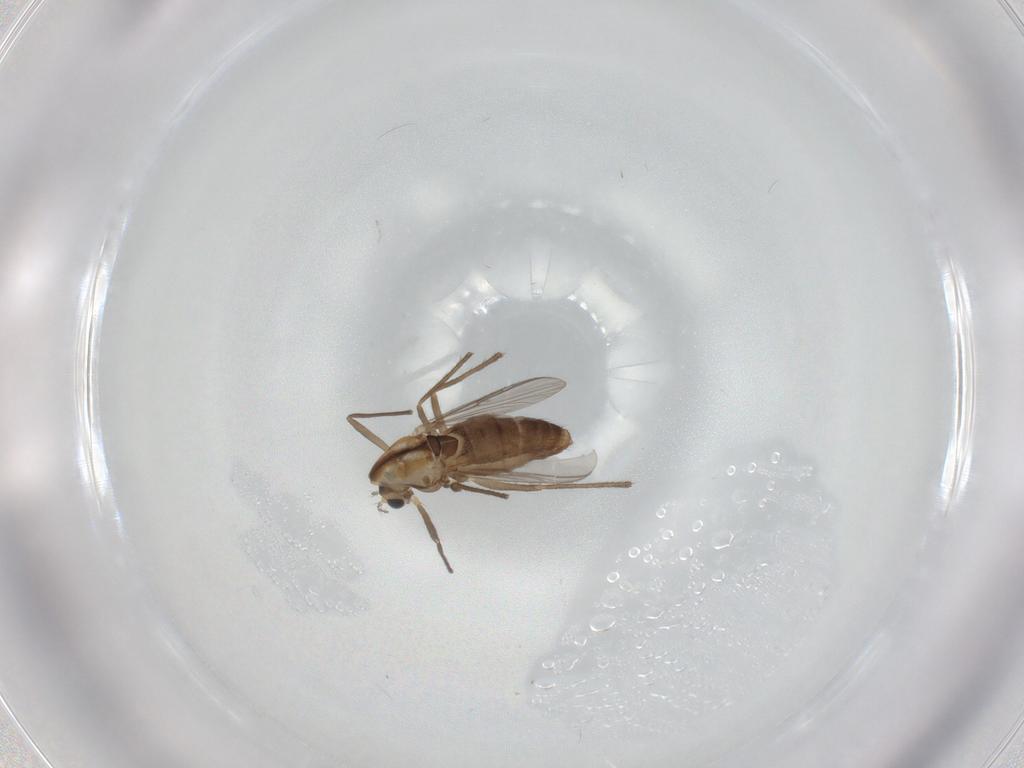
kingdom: Animalia
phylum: Arthropoda
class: Insecta
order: Diptera
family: Chironomidae
